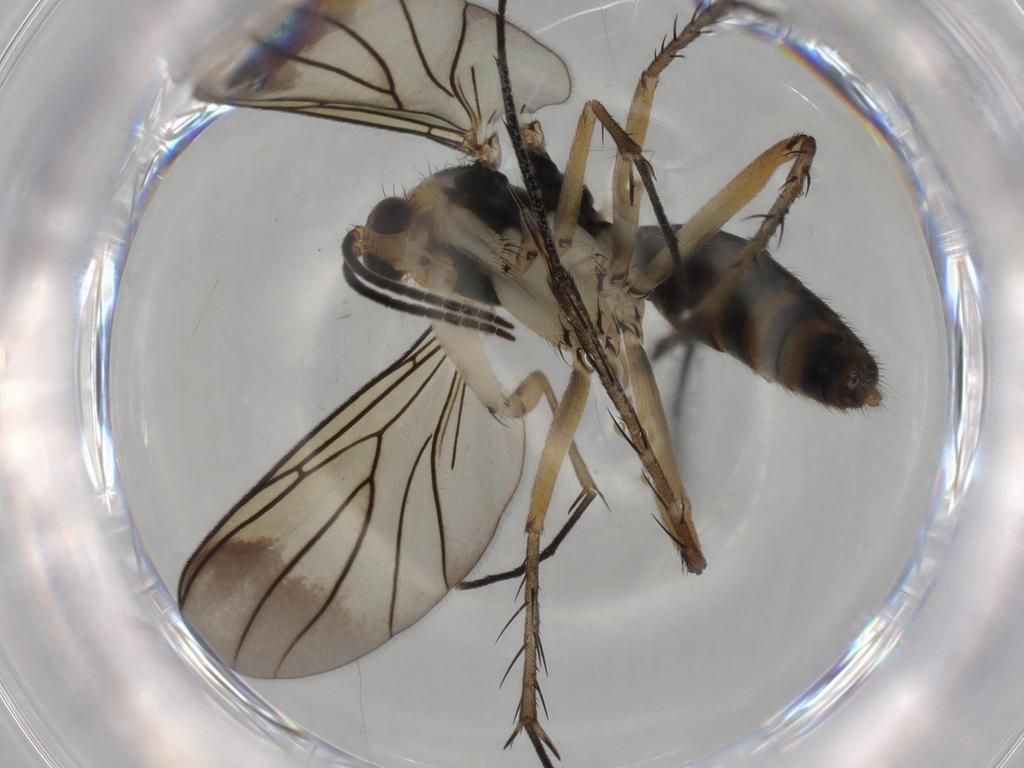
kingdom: Animalia
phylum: Arthropoda
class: Insecta
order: Diptera
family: Mycetophilidae
